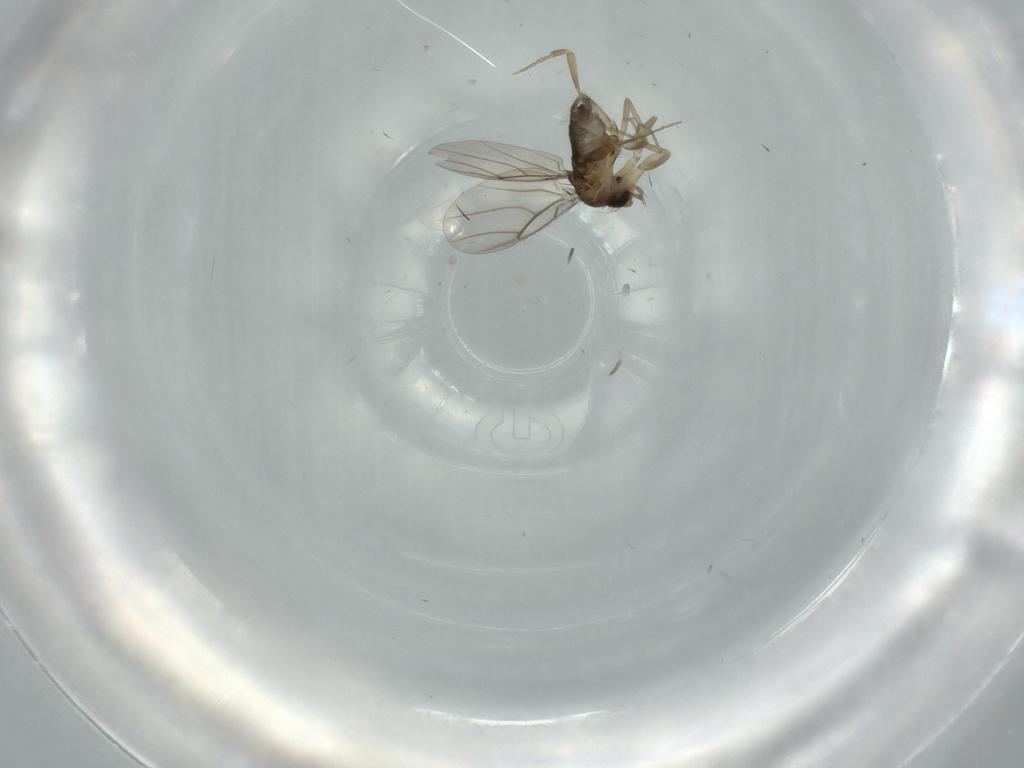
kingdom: Animalia
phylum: Arthropoda
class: Insecta
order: Diptera
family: Phoridae
